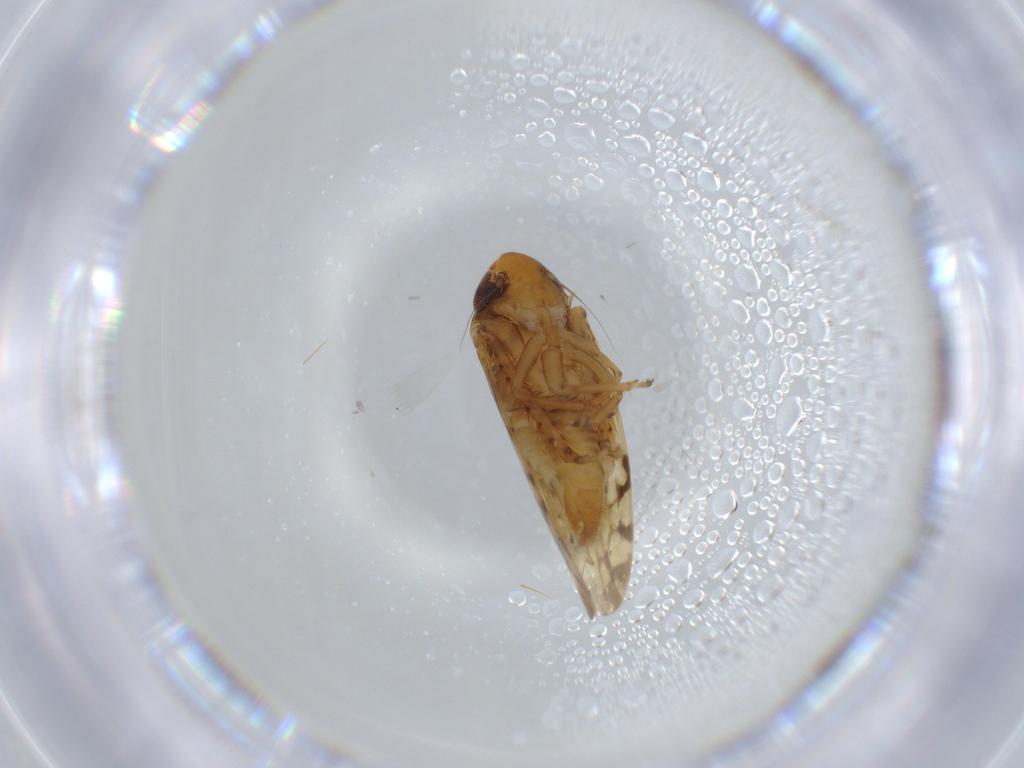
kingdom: Animalia
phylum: Arthropoda
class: Insecta
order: Hemiptera
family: Cicadellidae
